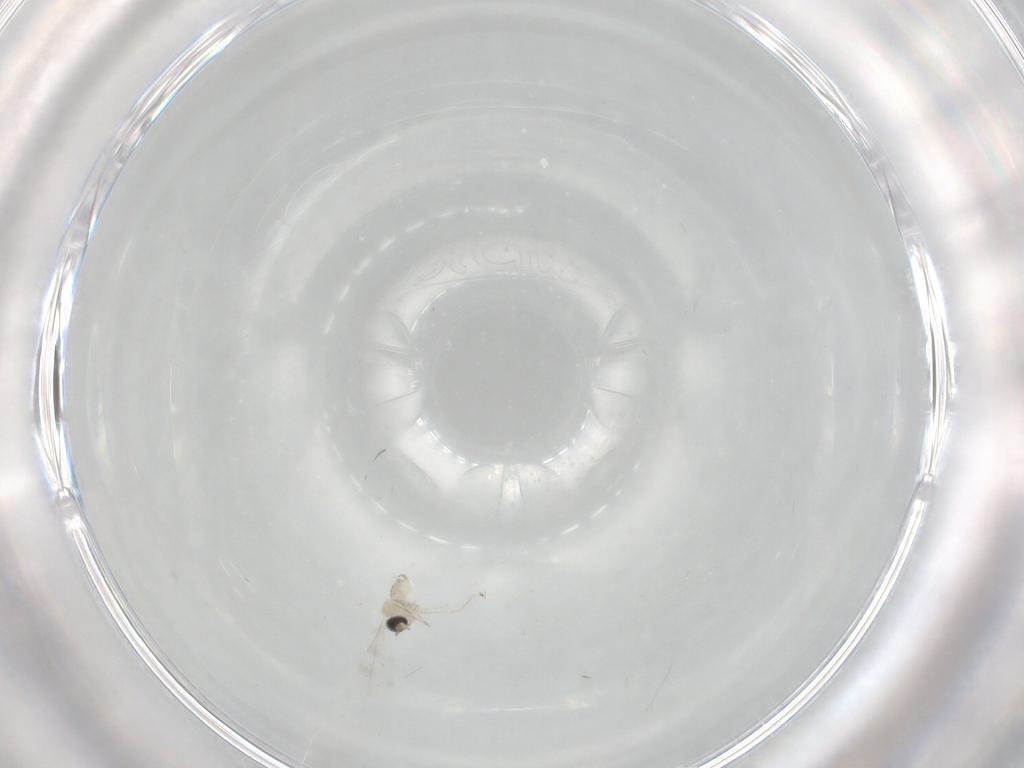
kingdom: Animalia
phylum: Arthropoda
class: Insecta
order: Diptera
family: Cecidomyiidae
